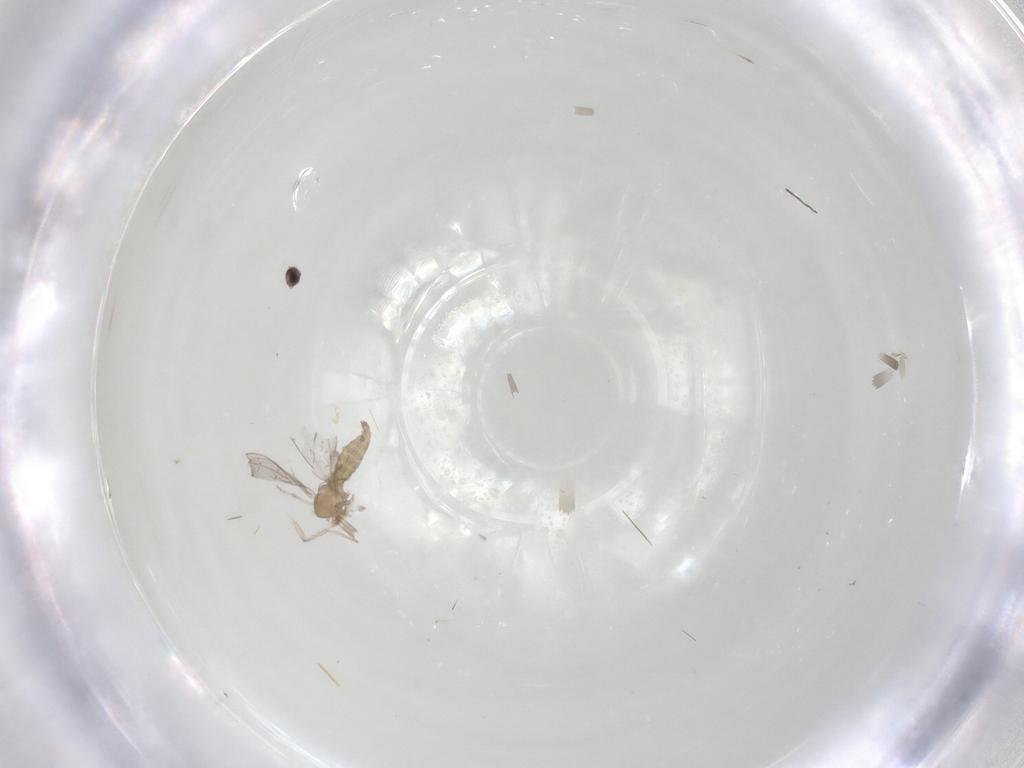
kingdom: Animalia
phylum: Arthropoda
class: Insecta
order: Diptera
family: Cecidomyiidae
